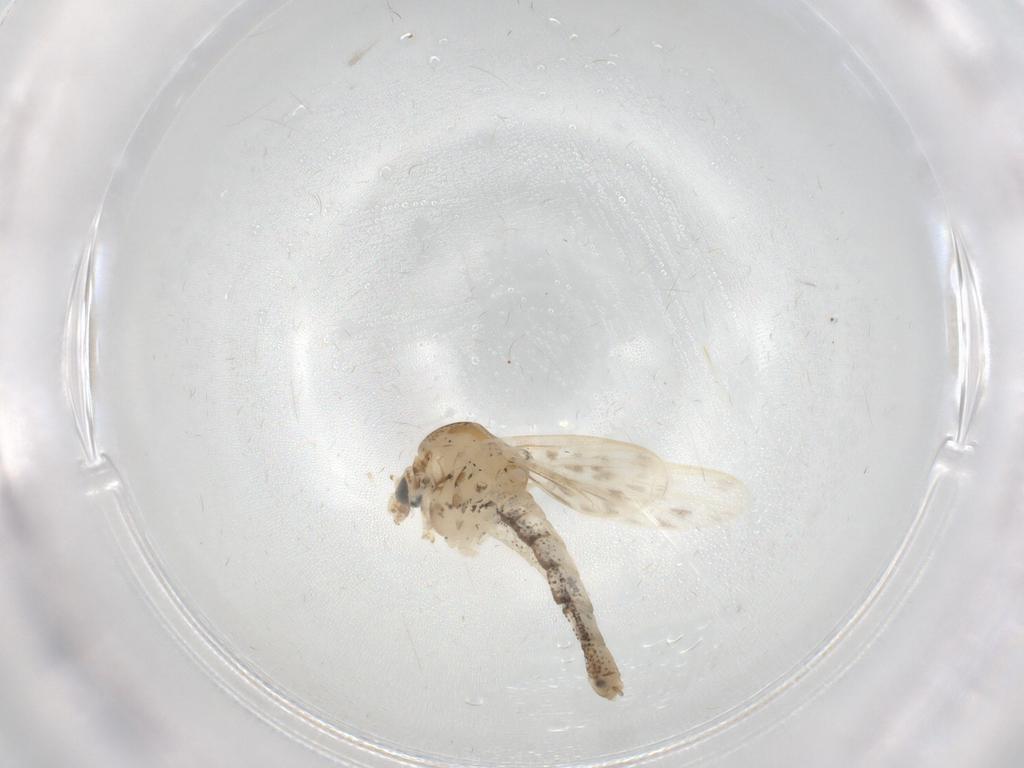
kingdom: Animalia
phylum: Arthropoda
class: Insecta
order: Diptera
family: Chaoboridae
